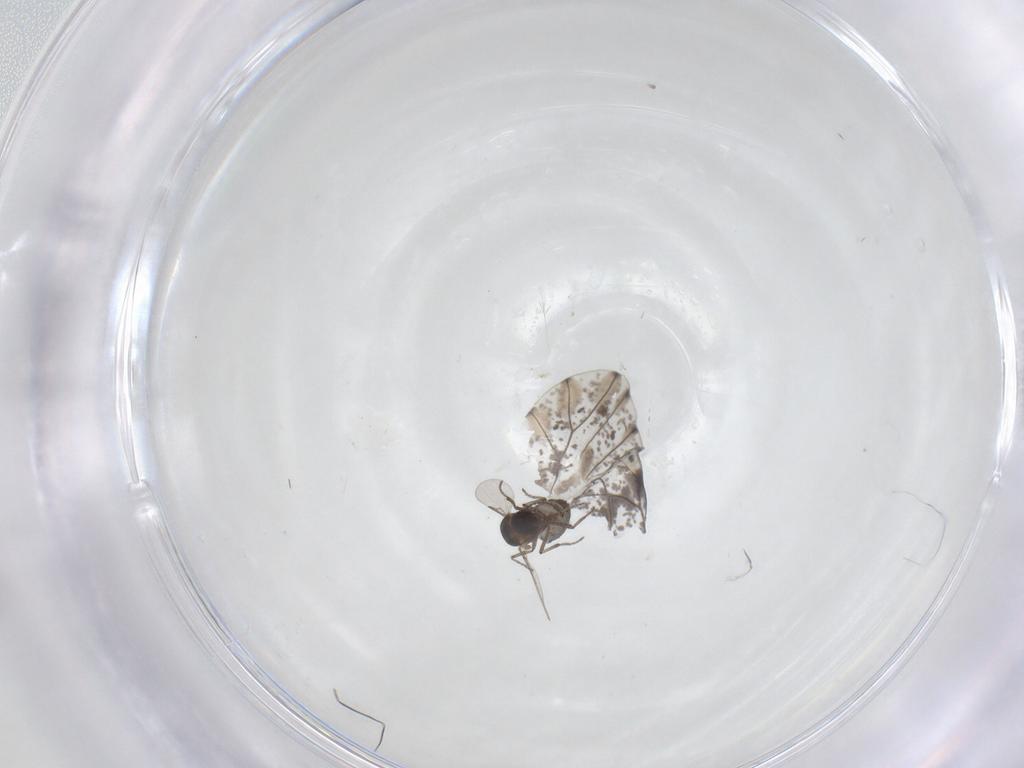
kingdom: Animalia
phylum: Arthropoda
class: Insecta
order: Diptera
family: Ceratopogonidae
